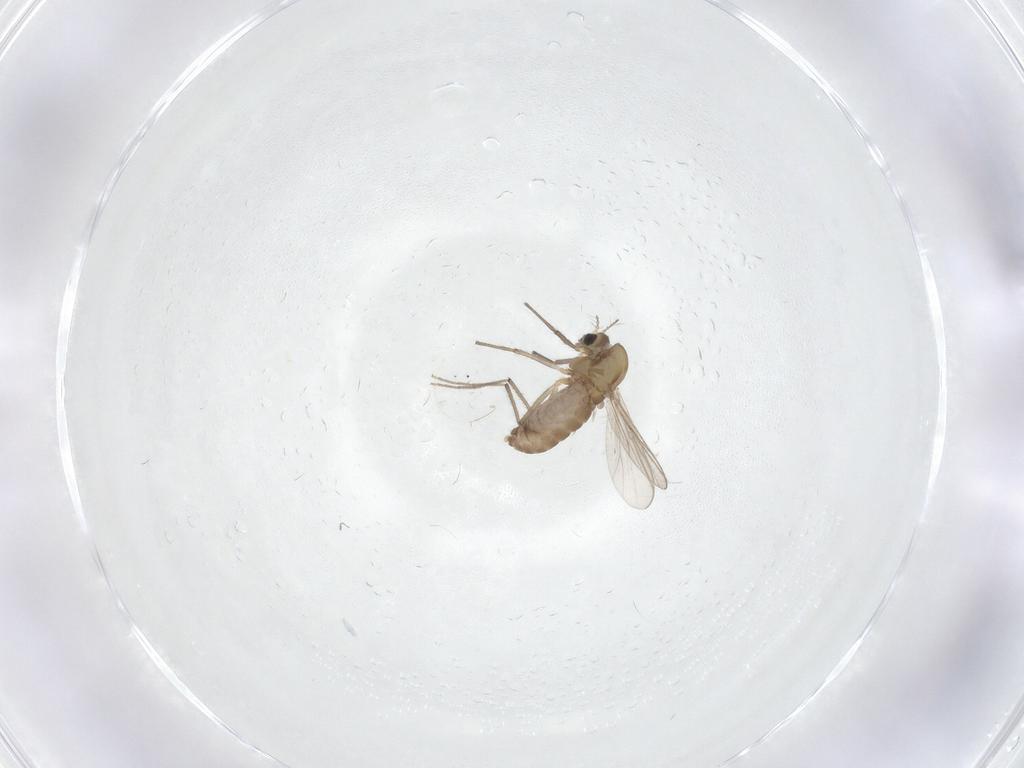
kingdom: Animalia
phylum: Arthropoda
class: Insecta
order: Diptera
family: Chironomidae
